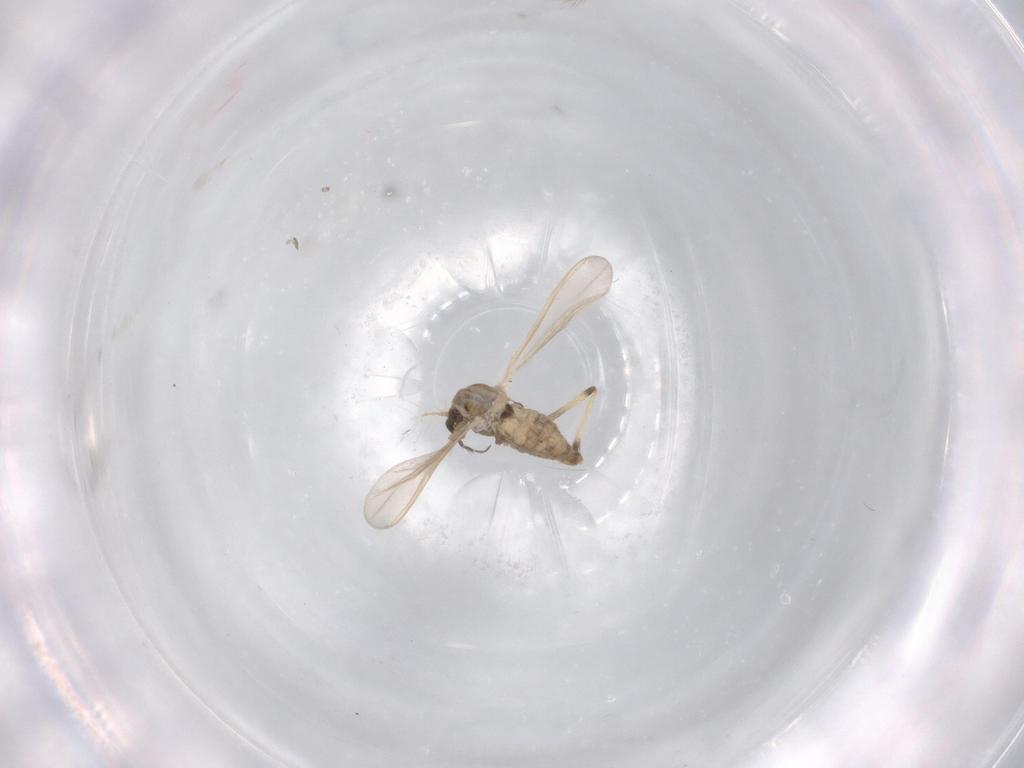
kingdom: Animalia
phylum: Arthropoda
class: Insecta
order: Diptera
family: Chironomidae
